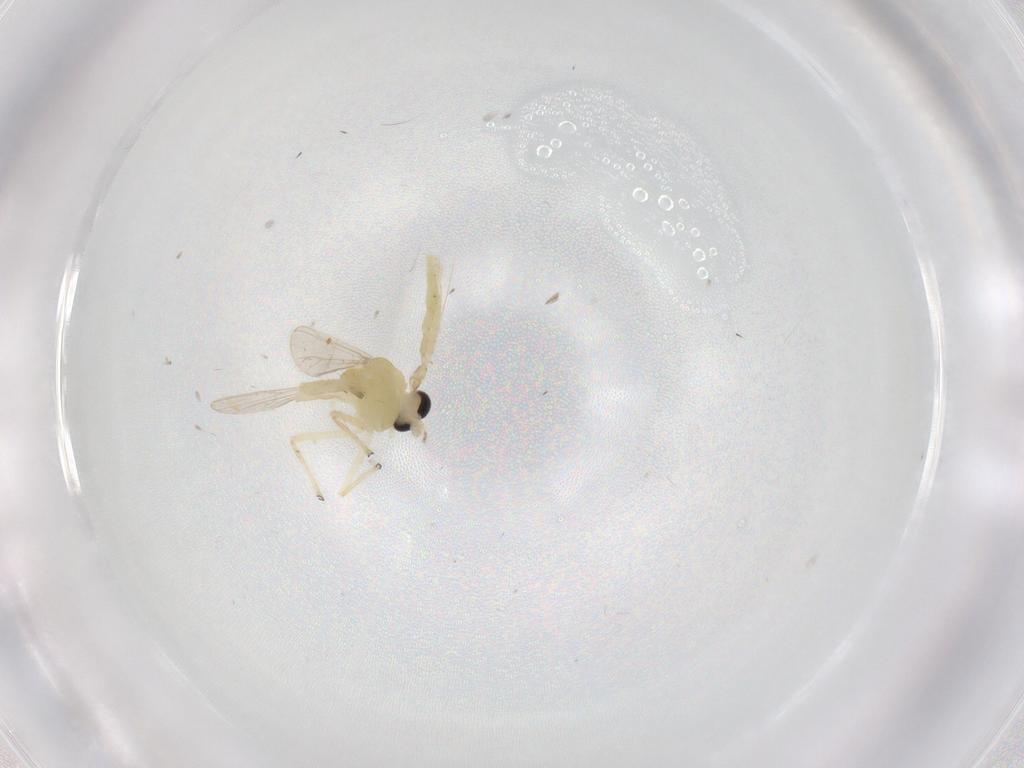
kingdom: Animalia
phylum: Arthropoda
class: Insecta
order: Diptera
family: Chironomidae
